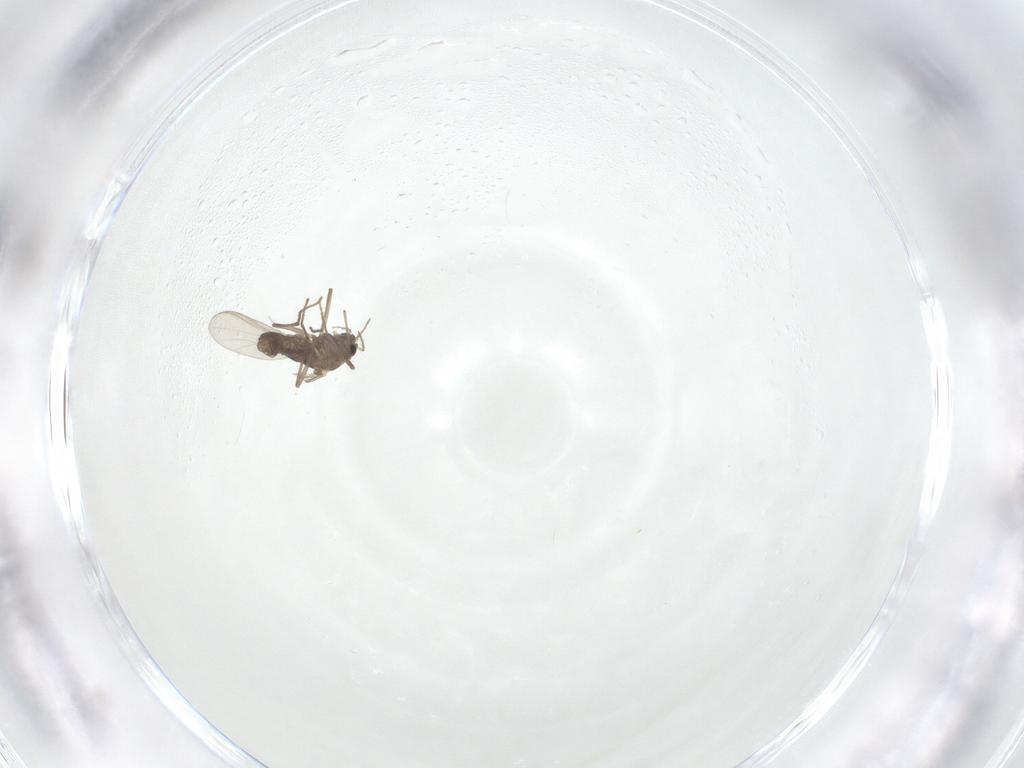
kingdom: Animalia
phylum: Arthropoda
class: Insecta
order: Diptera
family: Chironomidae
